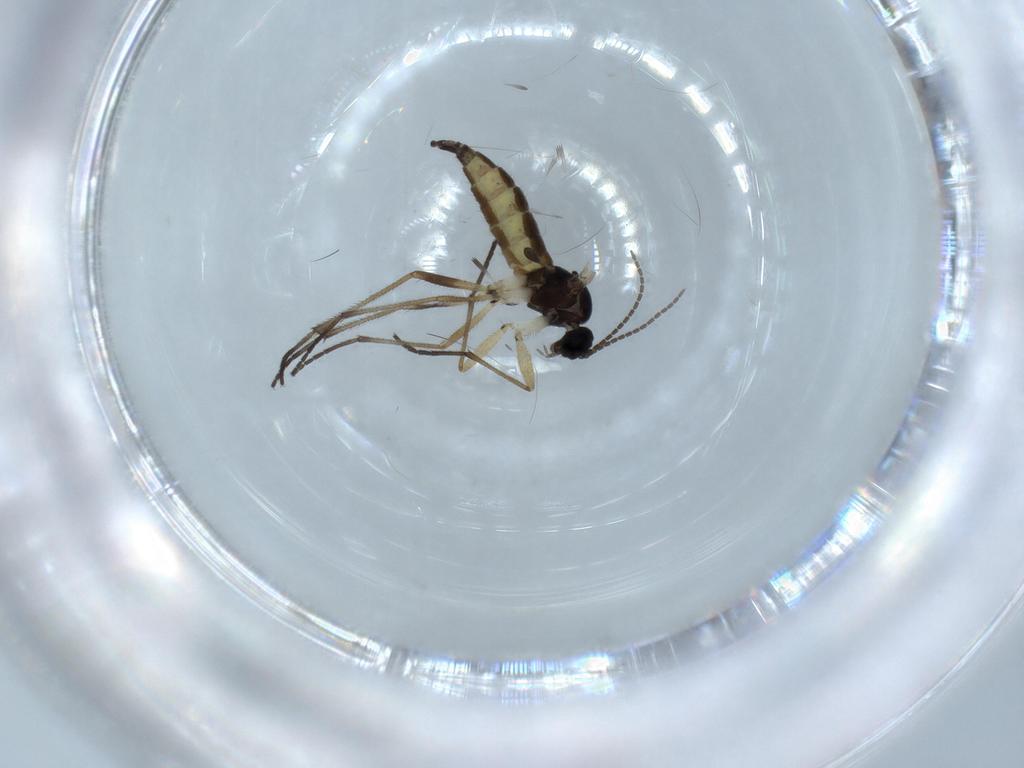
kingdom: Animalia
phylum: Arthropoda
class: Insecta
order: Diptera
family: Sciaridae
